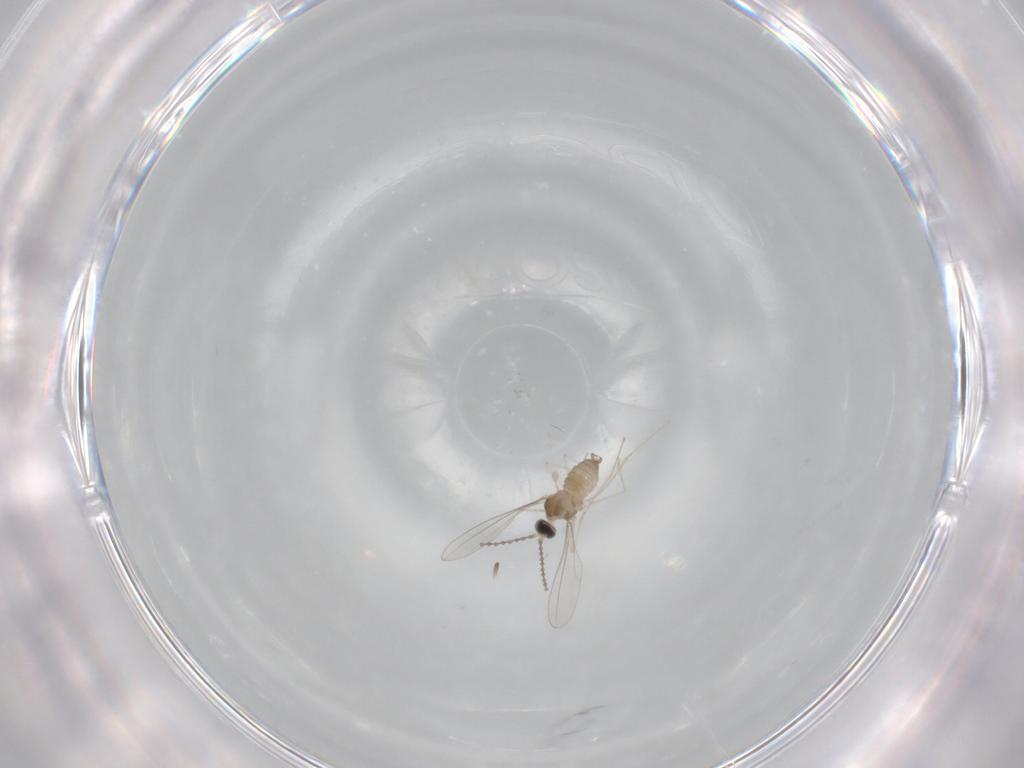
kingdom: Animalia
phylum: Arthropoda
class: Insecta
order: Diptera
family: Cecidomyiidae
